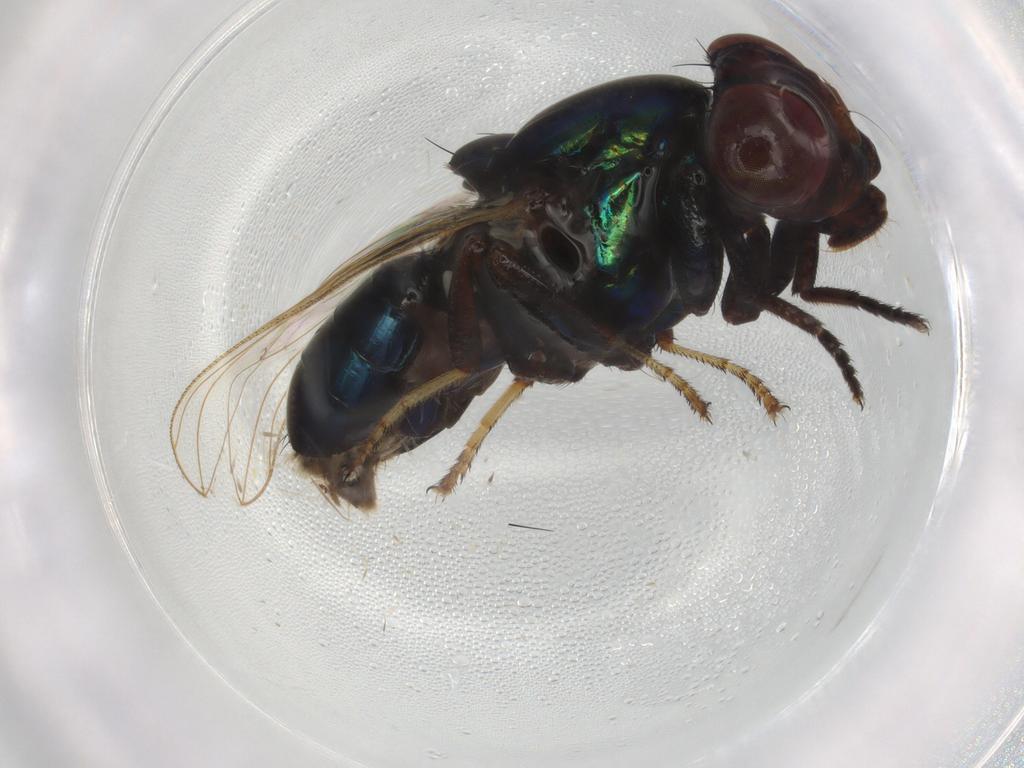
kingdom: Animalia
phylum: Arthropoda
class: Insecta
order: Diptera
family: Ulidiidae
